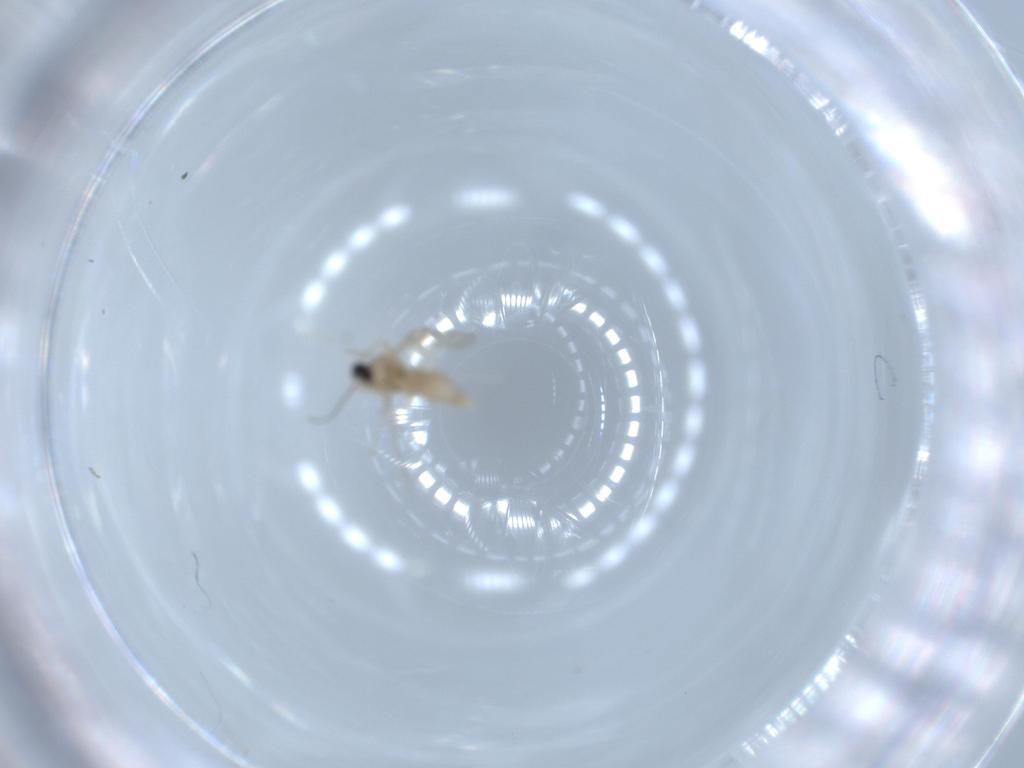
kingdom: Animalia
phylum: Arthropoda
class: Insecta
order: Diptera
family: Cecidomyiidae
